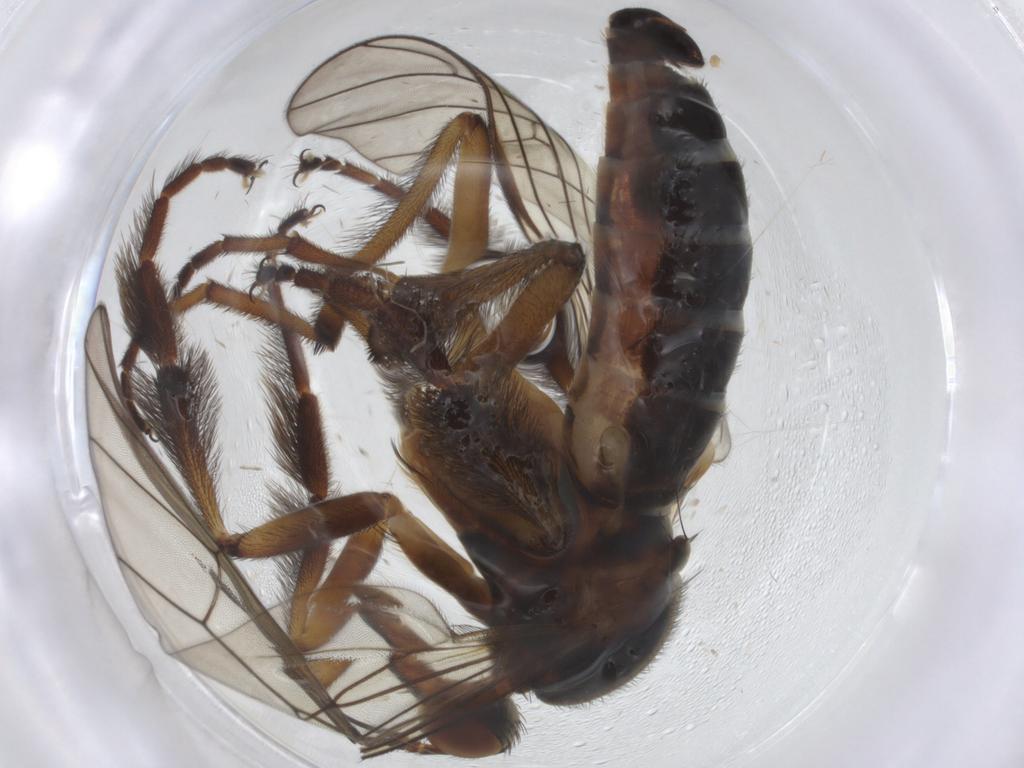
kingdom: Animalia
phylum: Arthropoda
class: Insecta
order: Diptera
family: Empididae
